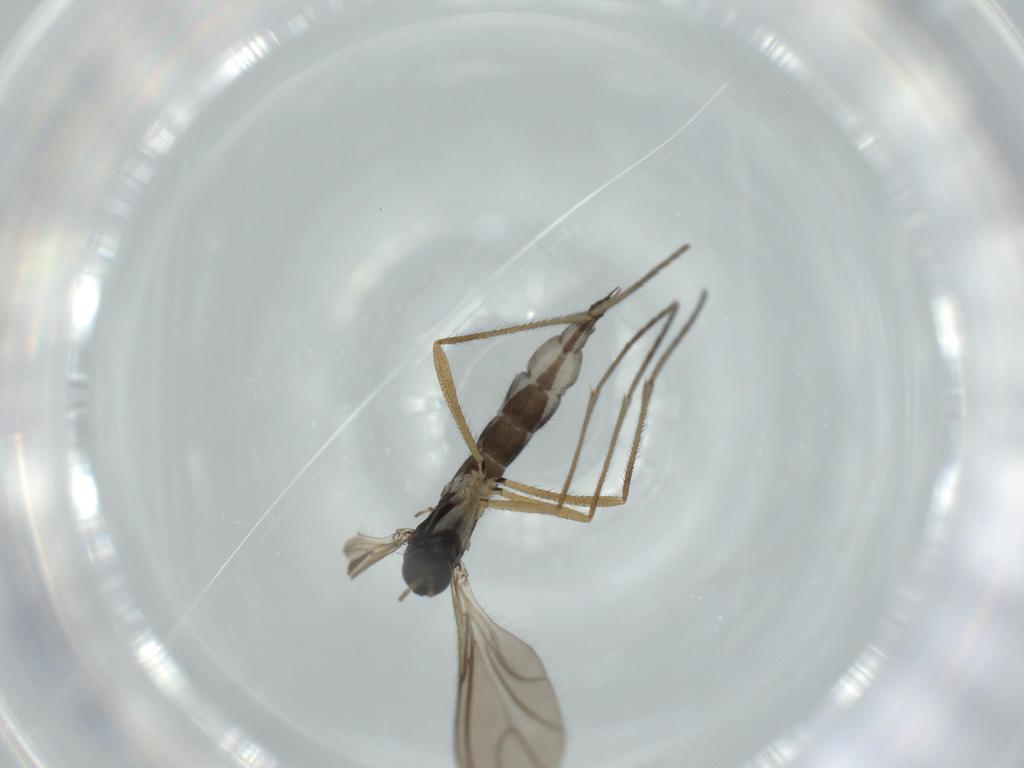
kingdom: Animalia
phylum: Arthropoda
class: Insecta
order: Diptera
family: Sciaridae
